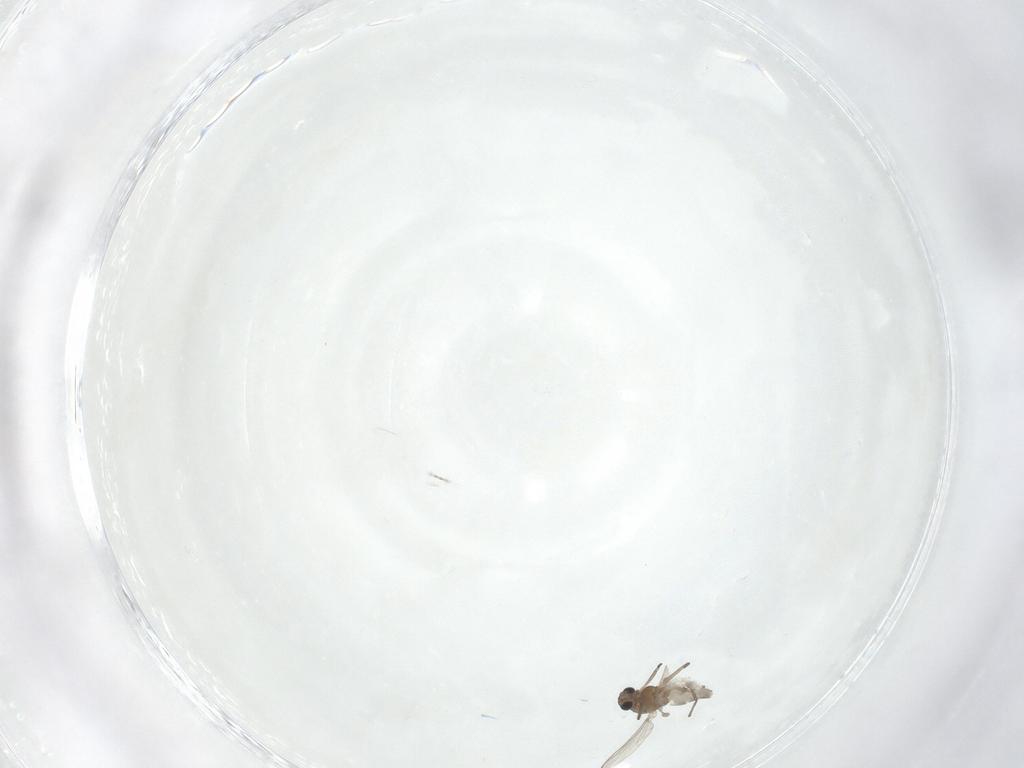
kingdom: Animalia
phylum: Arthropoda
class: Insecta
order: Diptera
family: Chironomidae
